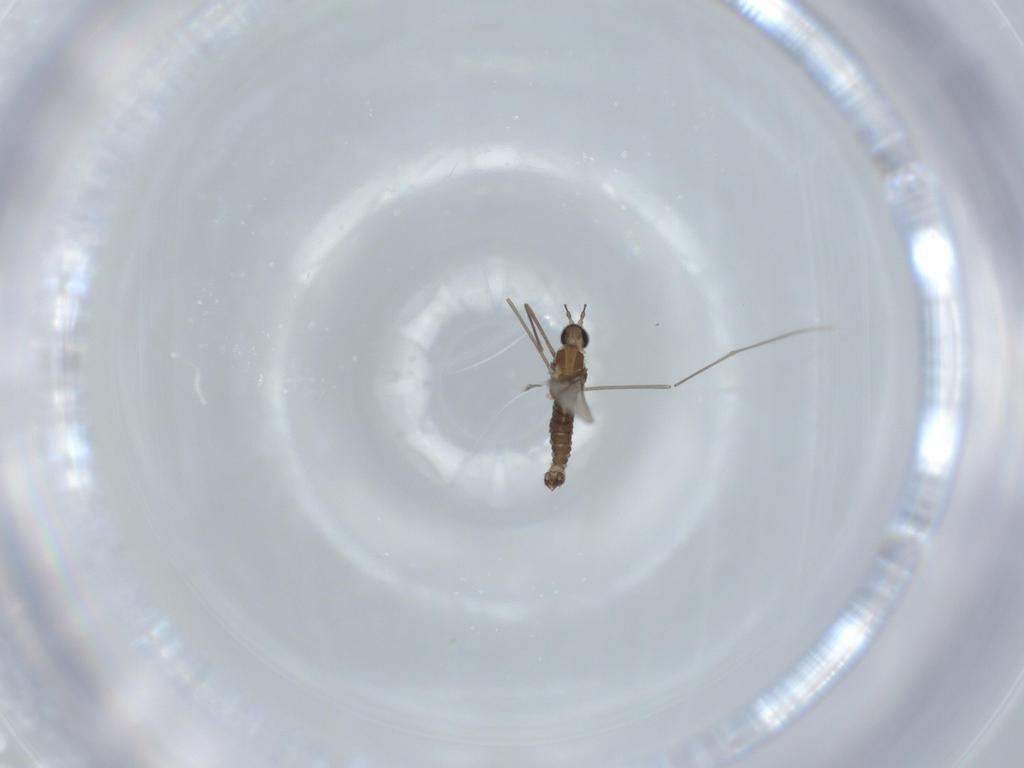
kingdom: Animalia
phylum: Arthropoda
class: Insecta
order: Diptera
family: Cecidomyiidae
